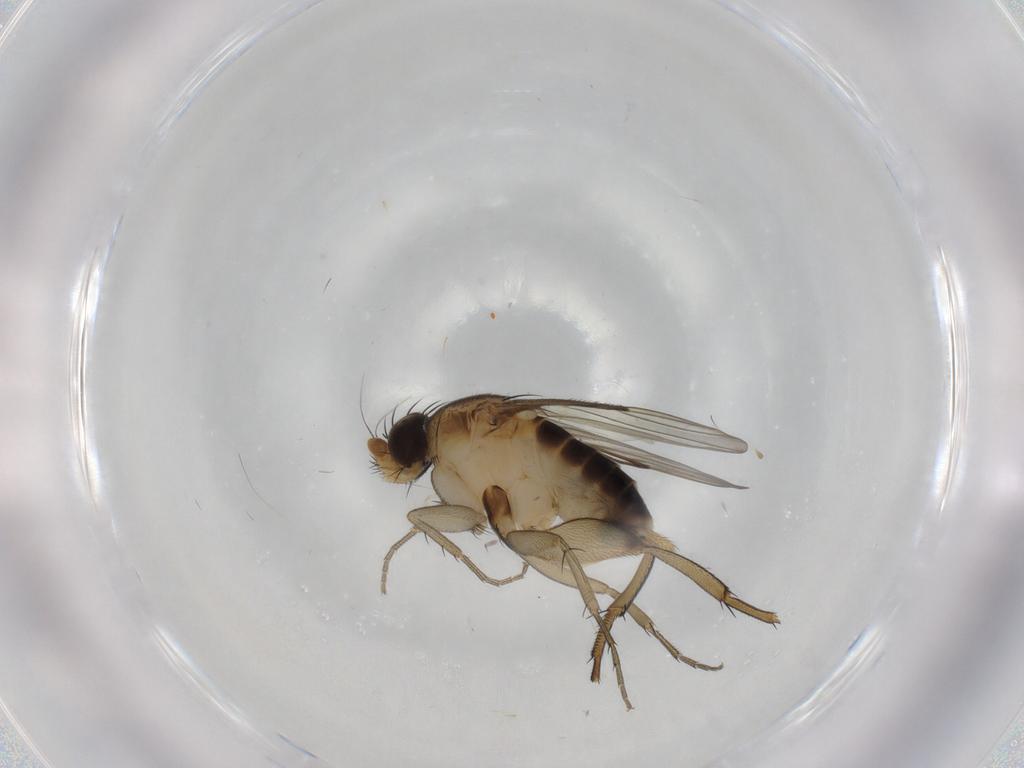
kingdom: Animalia
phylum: Arthropoda
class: Insecta
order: Diptera
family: Phoridae
